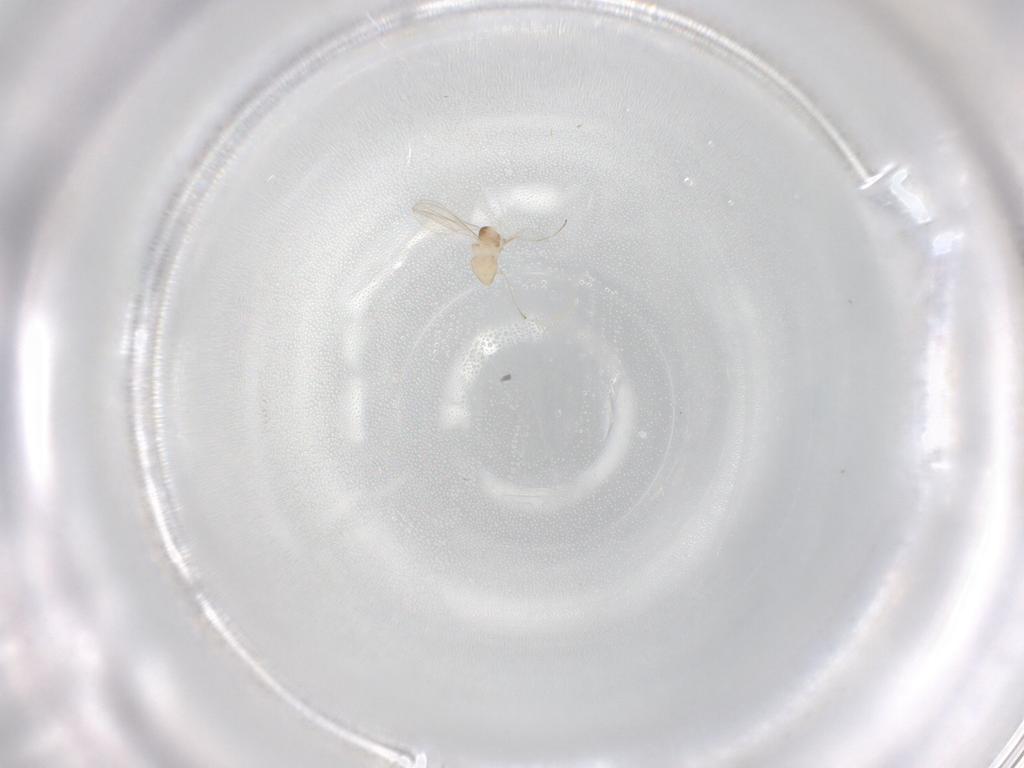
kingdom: Animalia
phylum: Arthropoda
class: Insecta
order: Diptera
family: Cecidomyiidae
